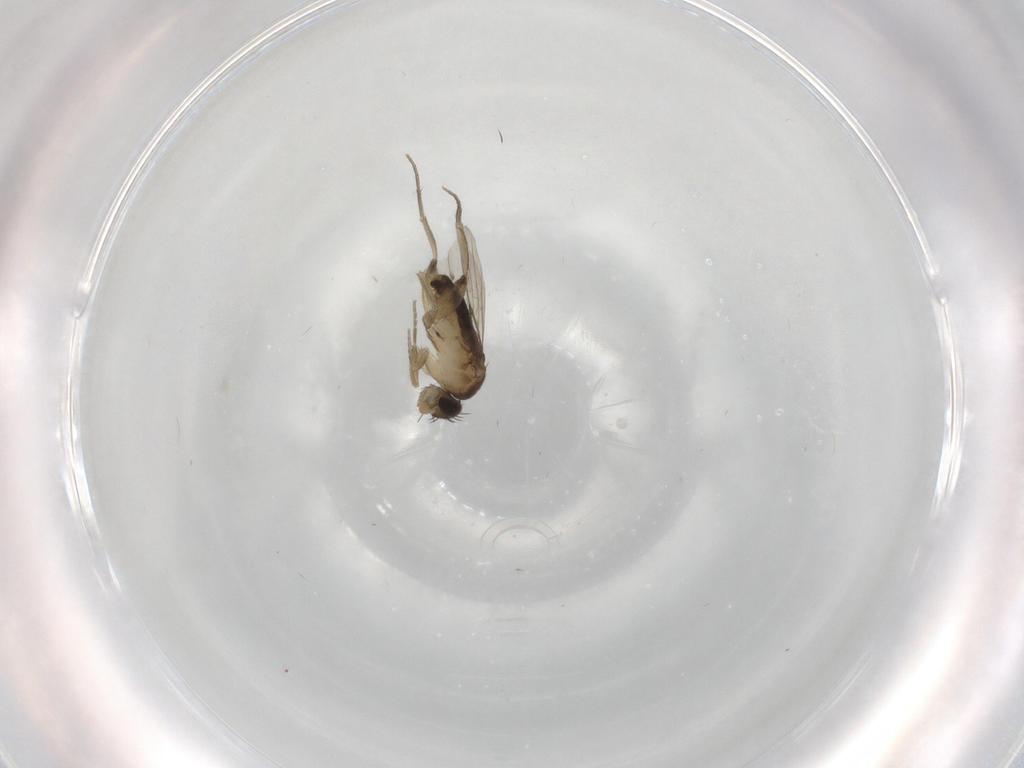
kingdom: Animalia
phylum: Arthropoda
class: Insecta
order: Diptera
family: Phoridae
